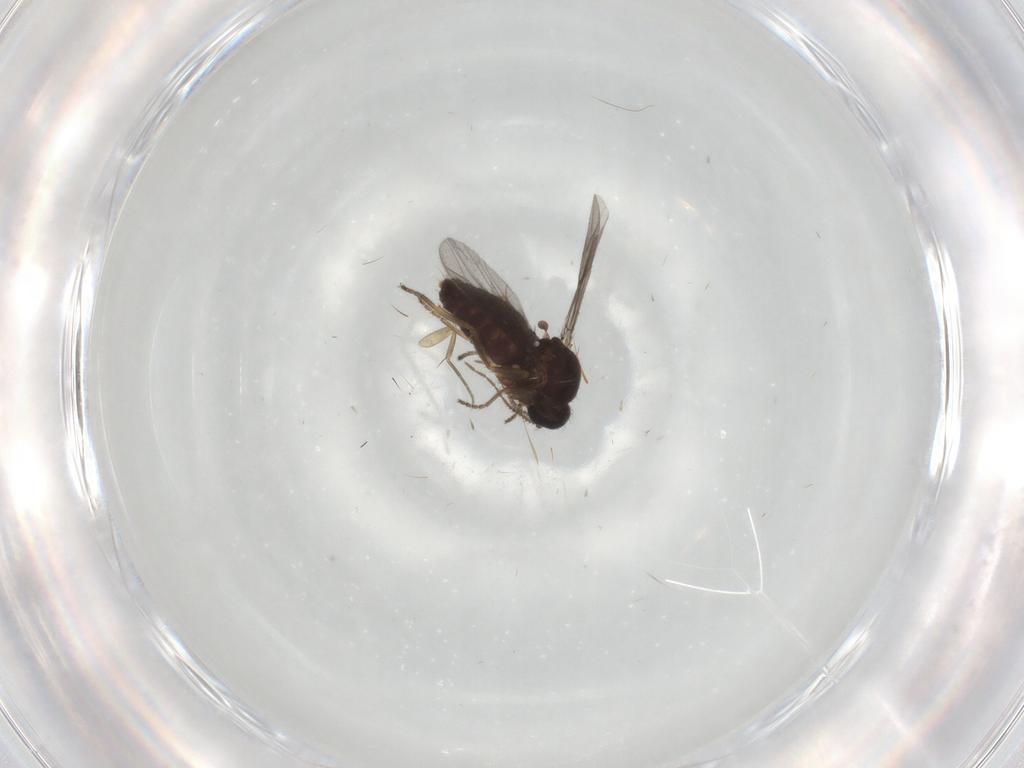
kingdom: Animalia
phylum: Arthropoda
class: Insecta
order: Diptera
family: Ceratopogonidae
